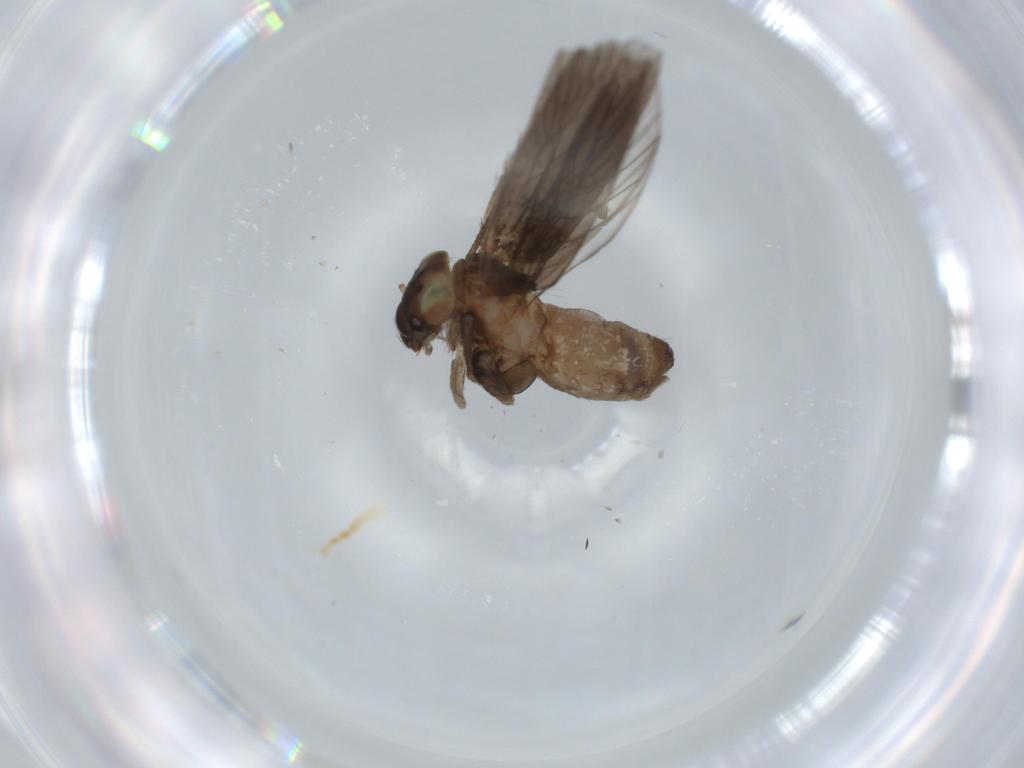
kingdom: Animalia
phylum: Arthropoda
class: Insecta
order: Psocodea
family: Lepidopsocidae
